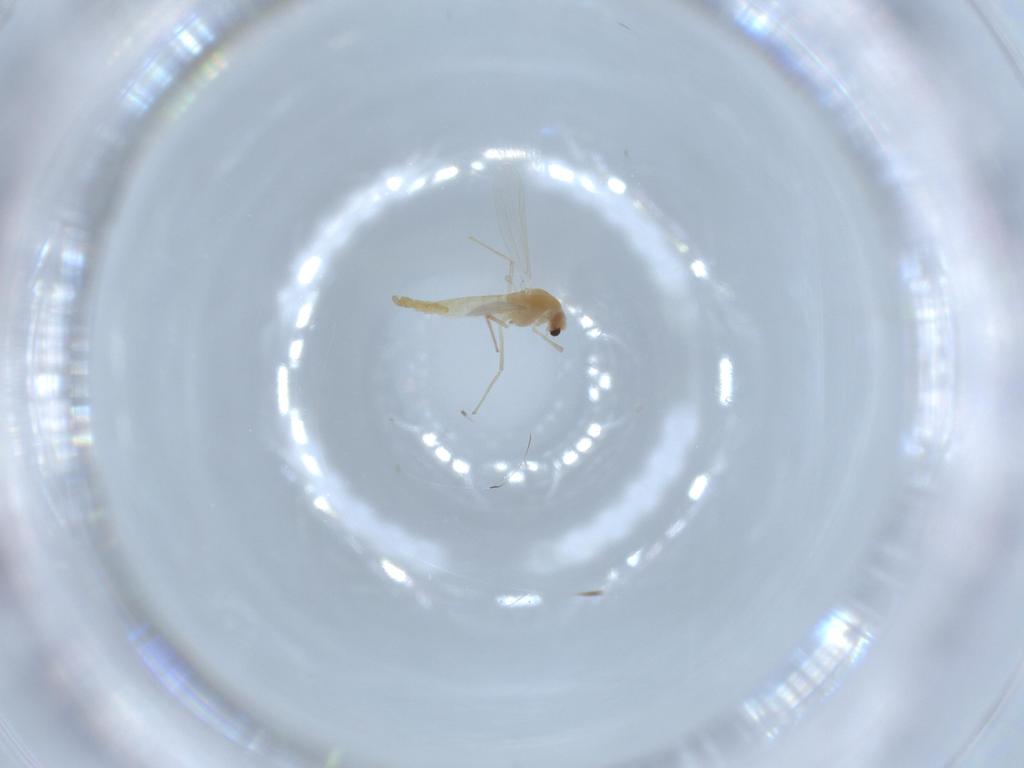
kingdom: Animalia
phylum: Arthropoda
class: Insecta
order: Diptera
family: Chironomidae
